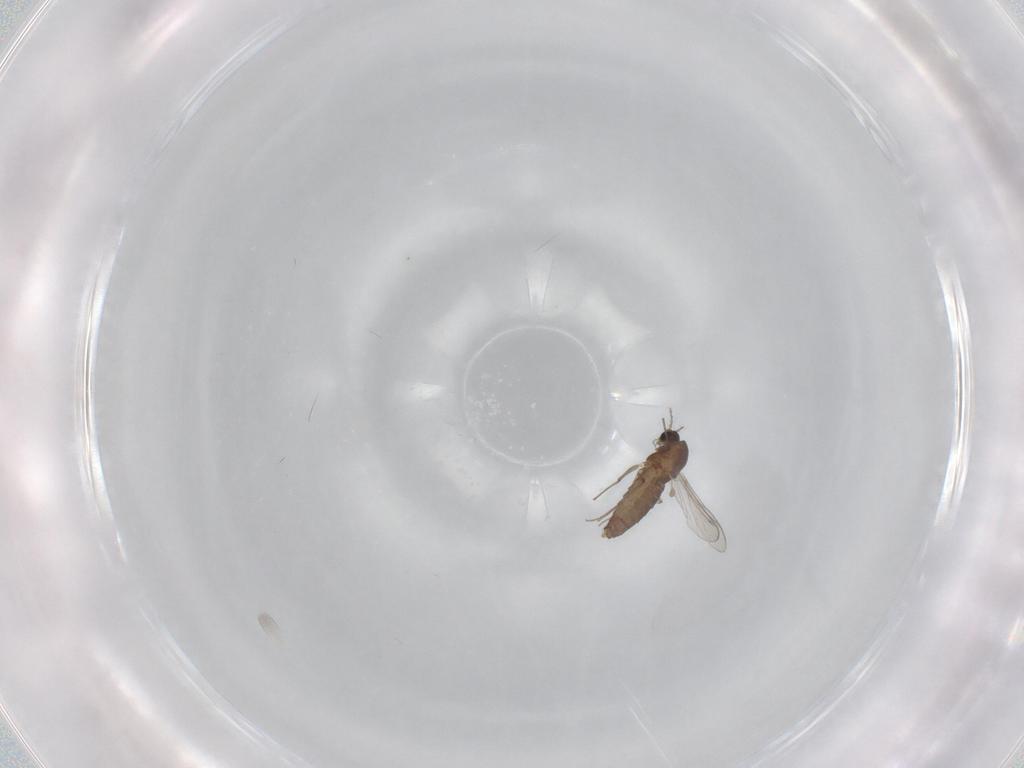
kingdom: Animalia
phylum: Arthropoda
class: Insecta
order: Diptera
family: Chironomidae
